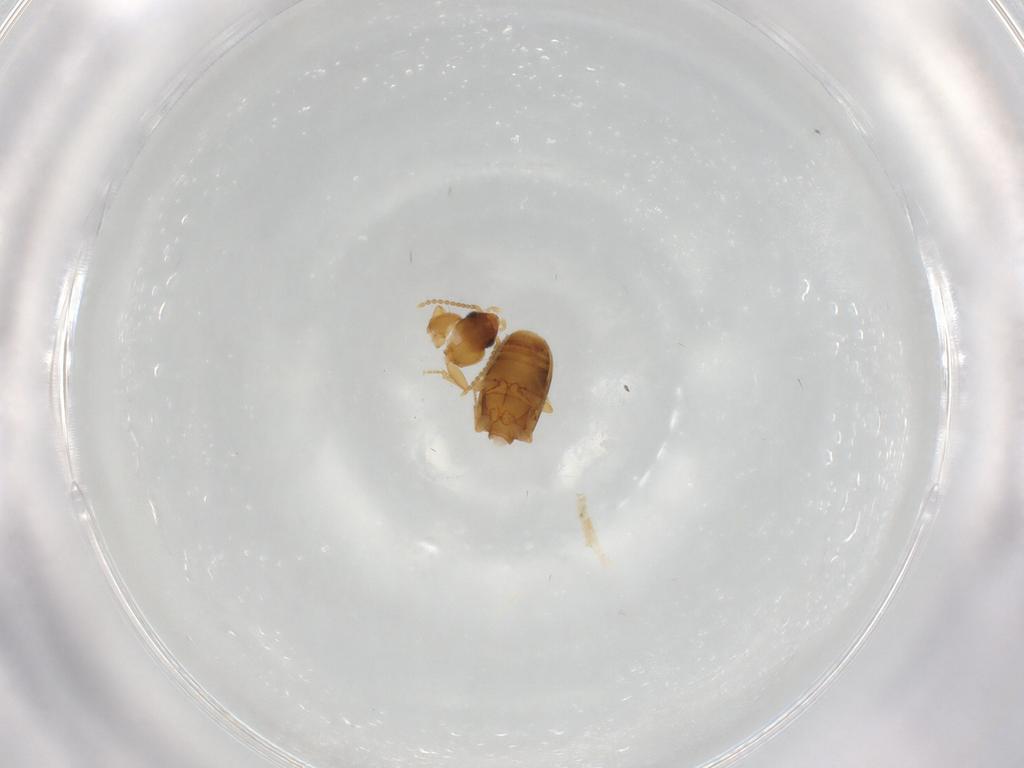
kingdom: Animalia
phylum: Arthropoda
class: Insecta
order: Coleoptera
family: Carabidae
